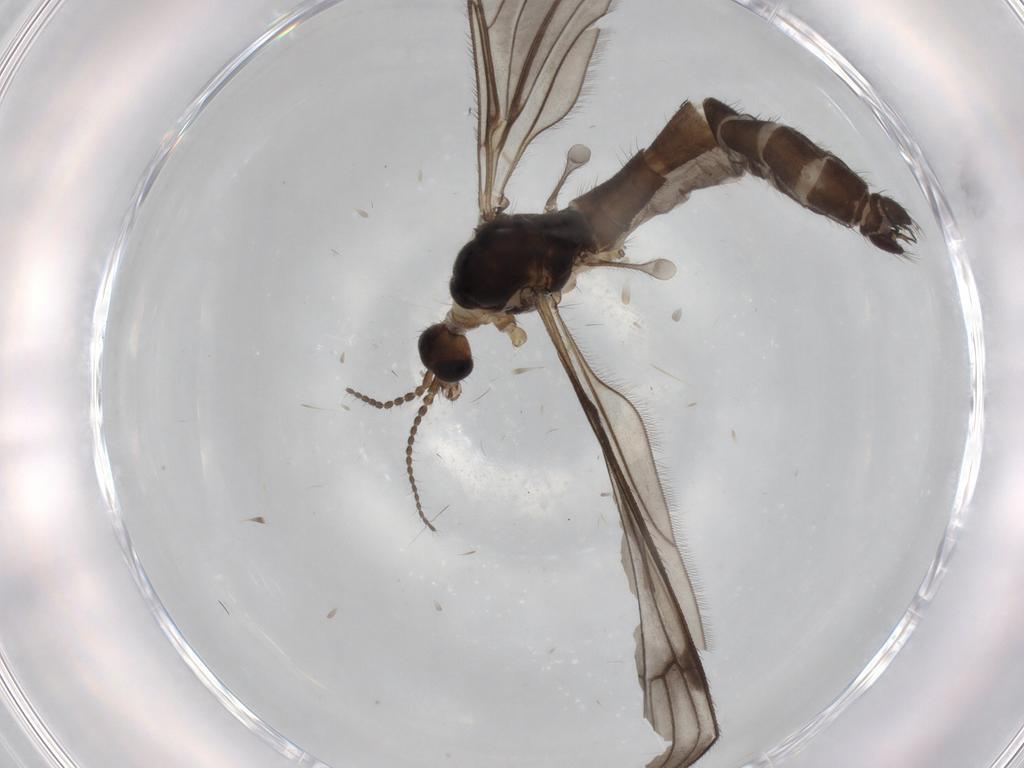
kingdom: Animalia
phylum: Arthropoda
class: Insecta
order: Diptera
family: Limoniidae
